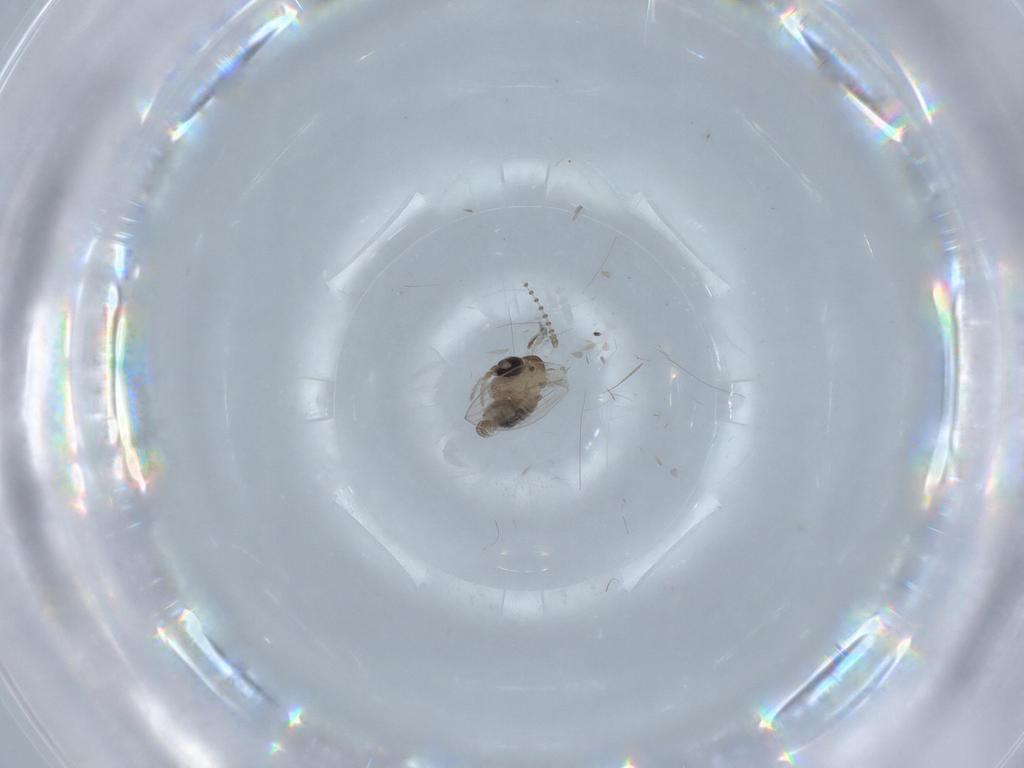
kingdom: Animalia
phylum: Arthropoda
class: Insecta
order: Diptera
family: Psychodidae
